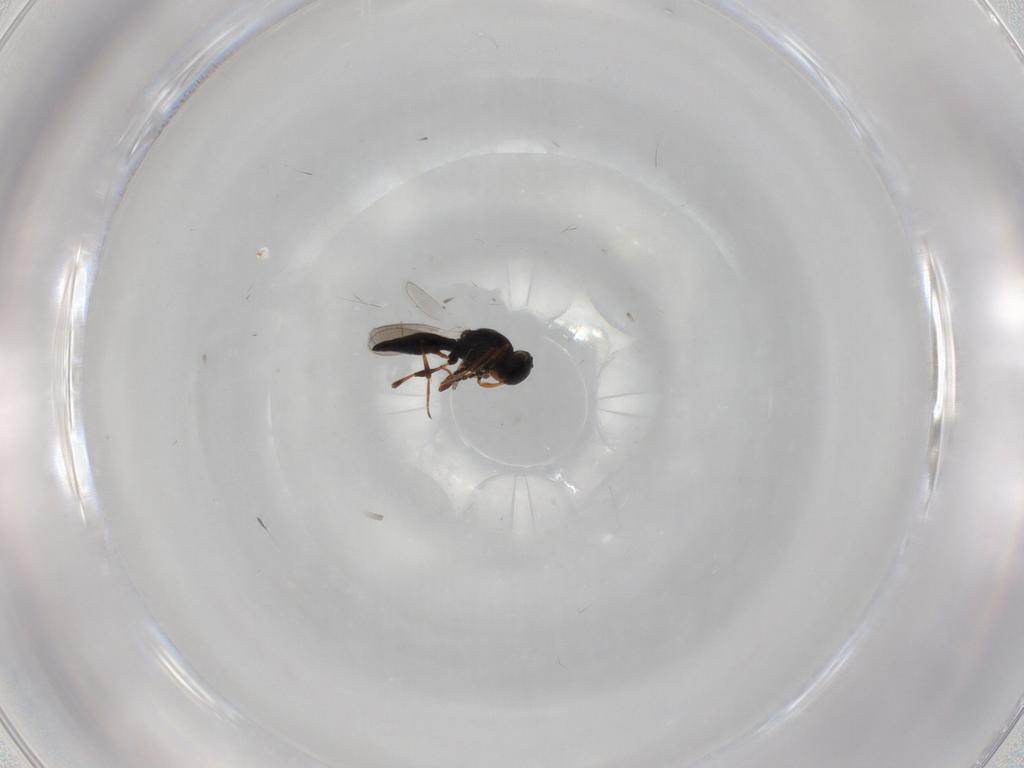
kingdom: Animalia
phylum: Arthropoda
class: Insecta
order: Hymenoptera
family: Platygastridae
